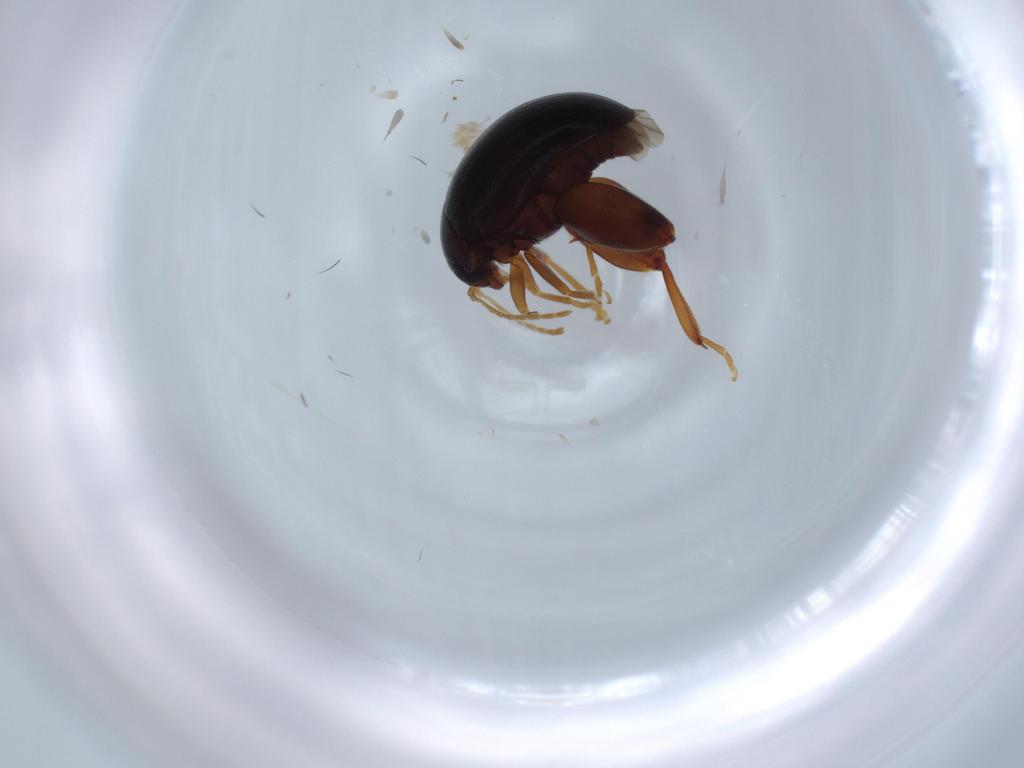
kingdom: Animalia
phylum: Arthropoda
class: Insecta
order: Coleoptera
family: Chrysomelidae
